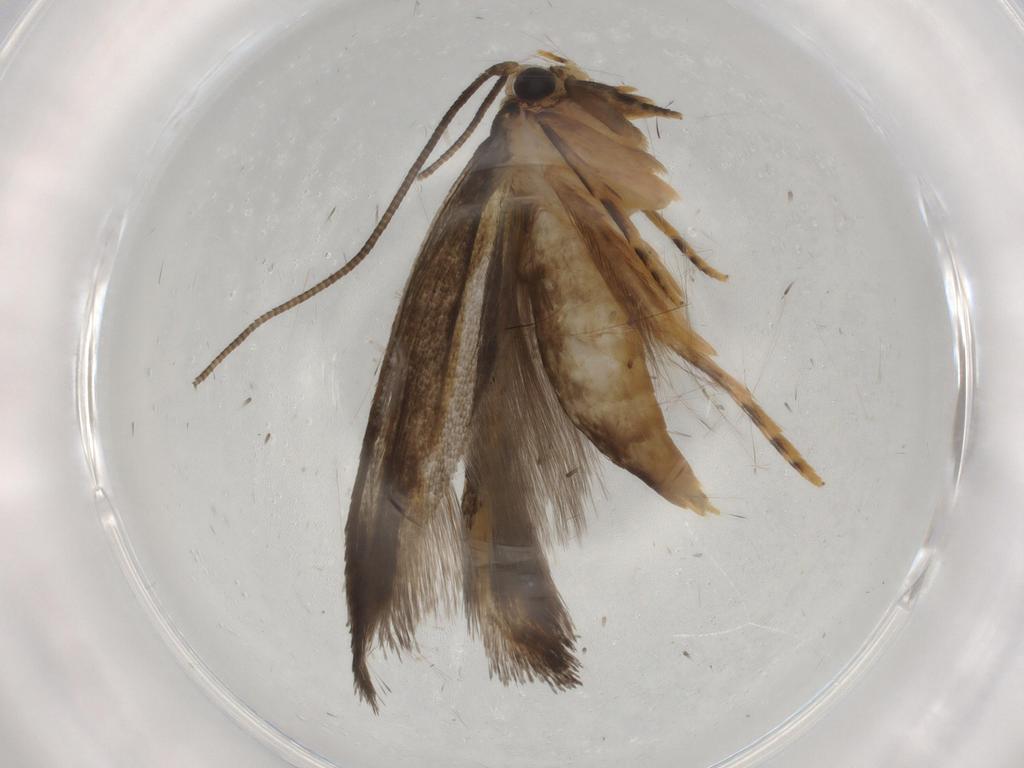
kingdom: Animalia
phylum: Arthropoda
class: Insecta
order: Lepidoptera
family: Tineidae
